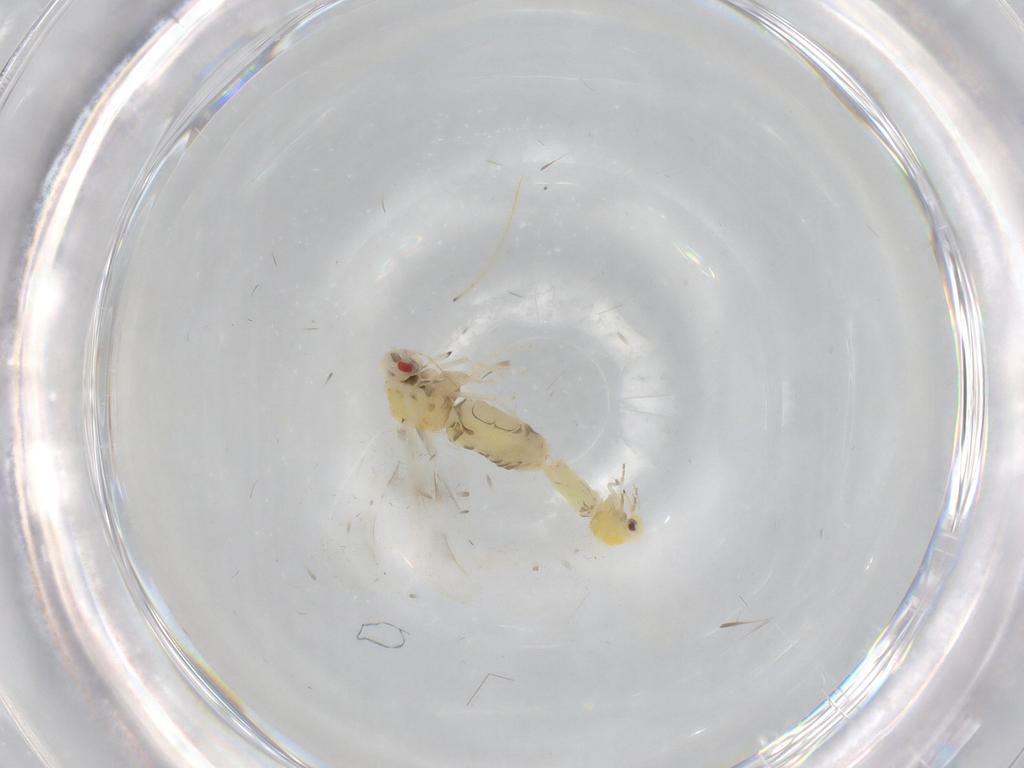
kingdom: Animalia
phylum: Arthropoda
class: Insecta
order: Hemiptera
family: Aleyrodidae
